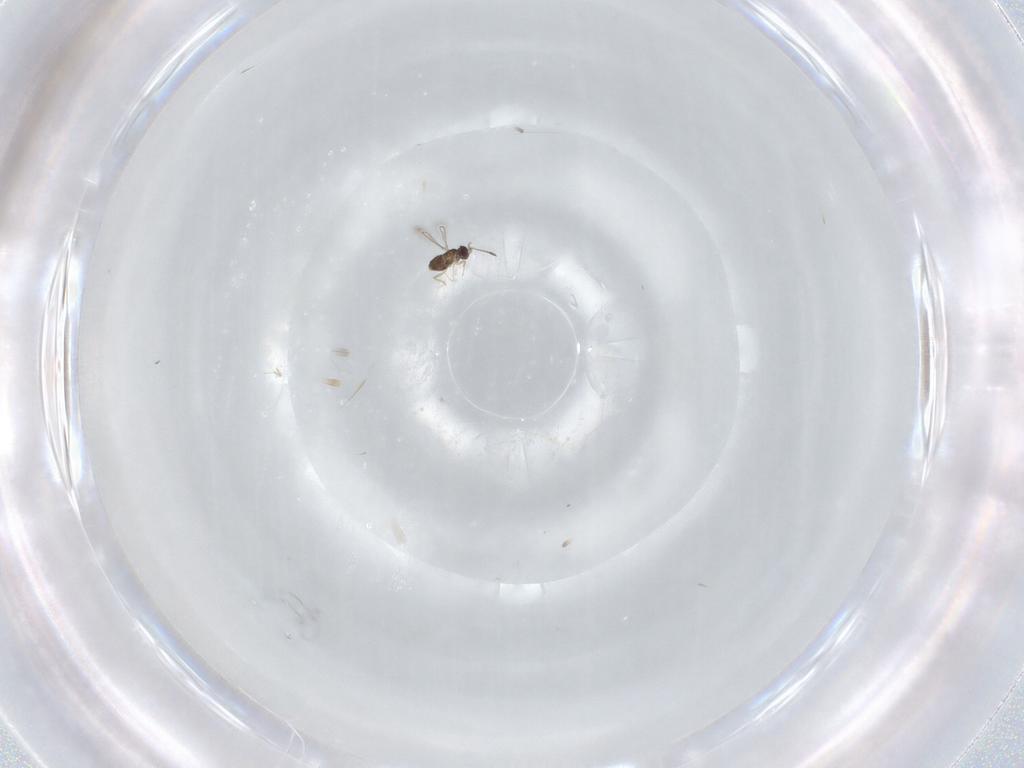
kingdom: Animalia
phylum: Arthropoda
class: Insecta
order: Hymenoptera
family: Mymaridae
